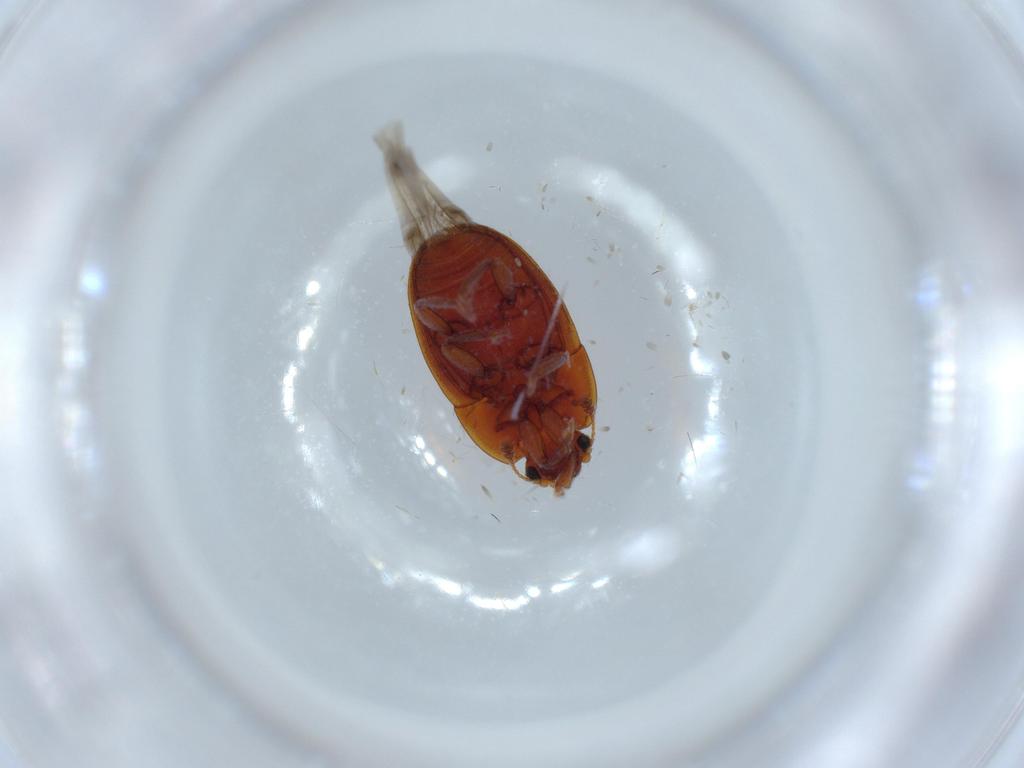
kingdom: Animalia
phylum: Arthropoda
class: Insecta
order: Coleoptera
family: Nitidulidae
